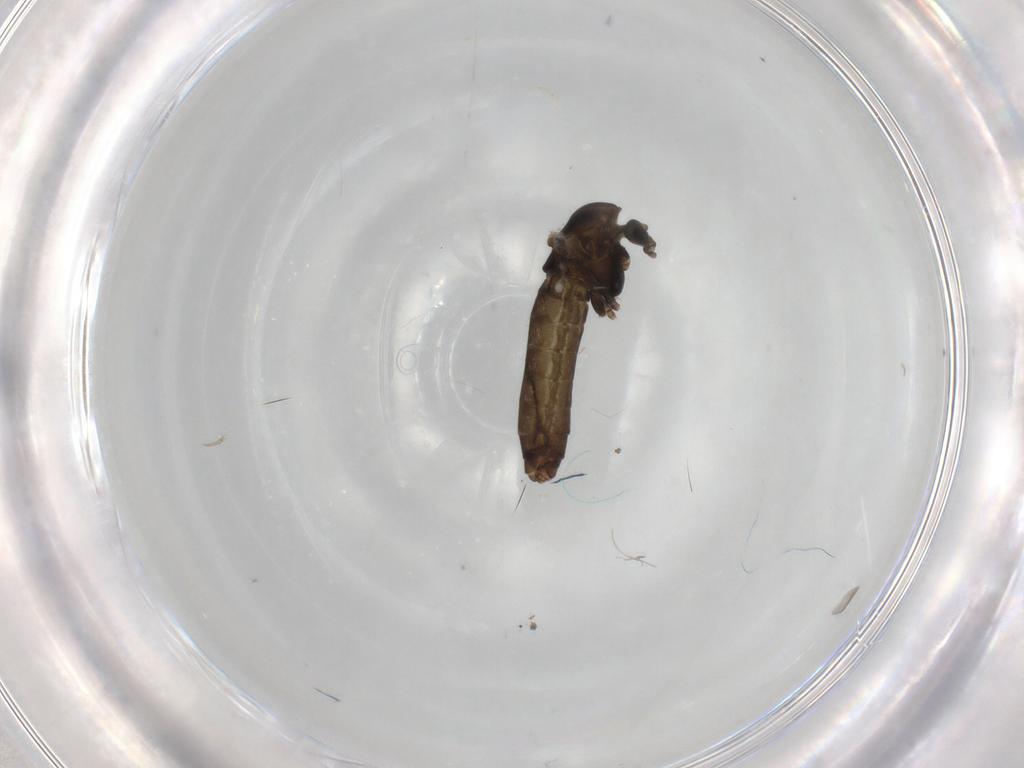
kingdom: Animalia
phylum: Arthropoda
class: Insecta
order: Diptera
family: Chironomidae
